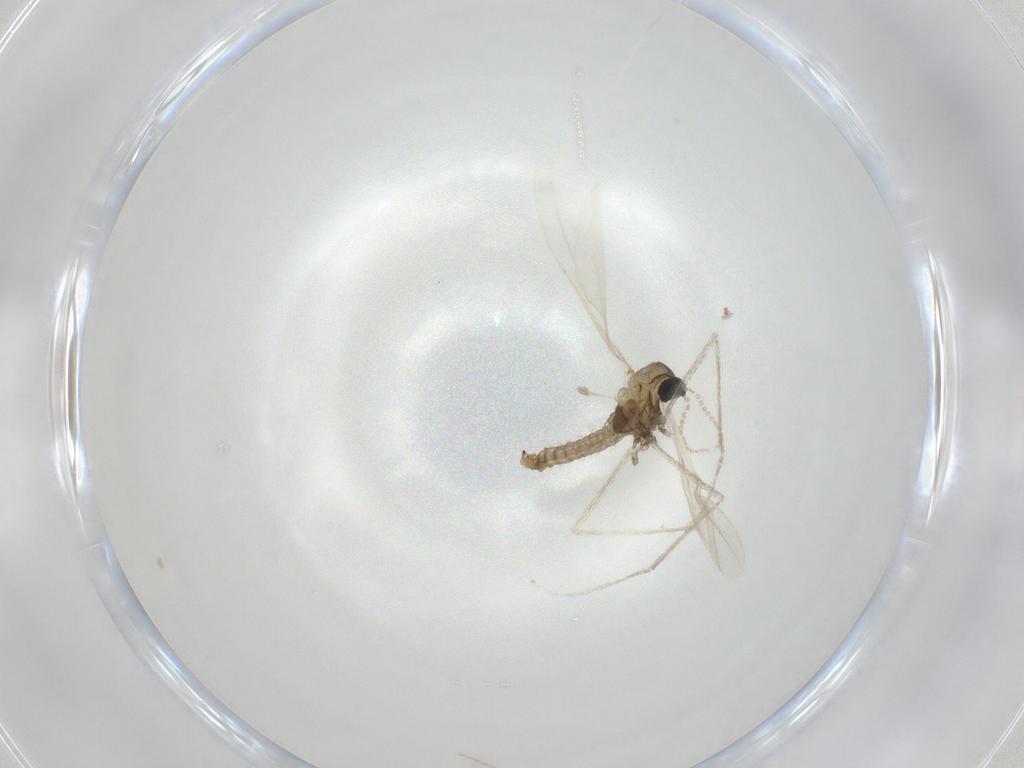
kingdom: Animalia
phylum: Arthropoda
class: Insecta
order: Diptera
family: Cecidomyiidae
